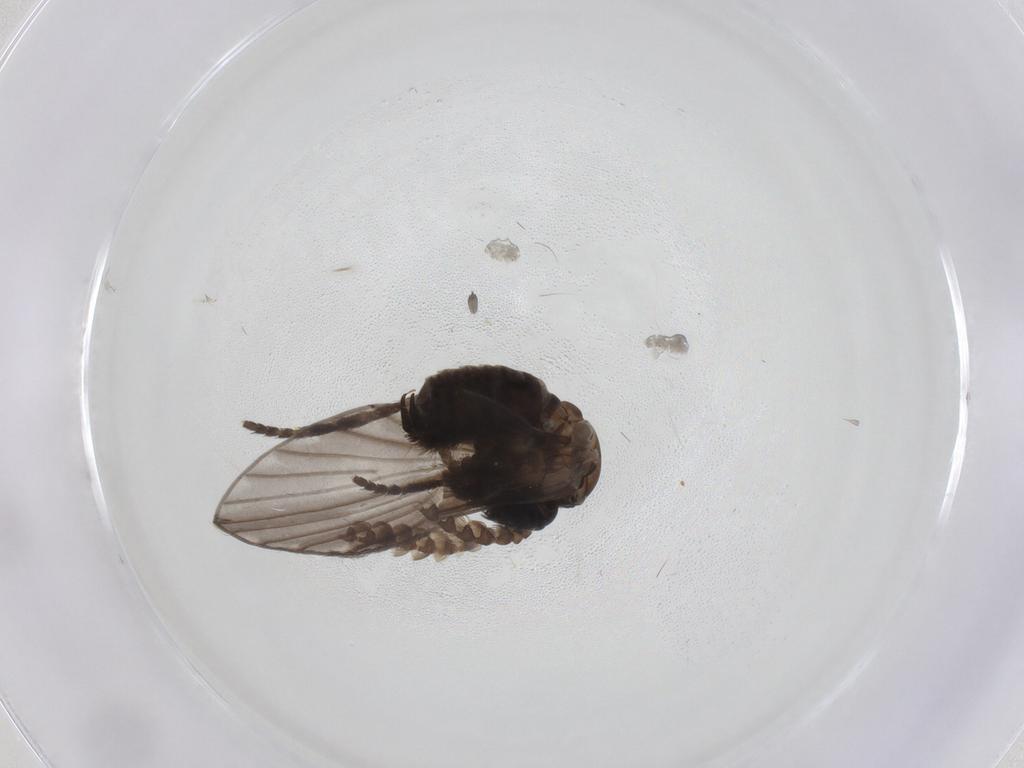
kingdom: Animalia
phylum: Arthropoda
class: Insecta
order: Diptera
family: Psychodidae
